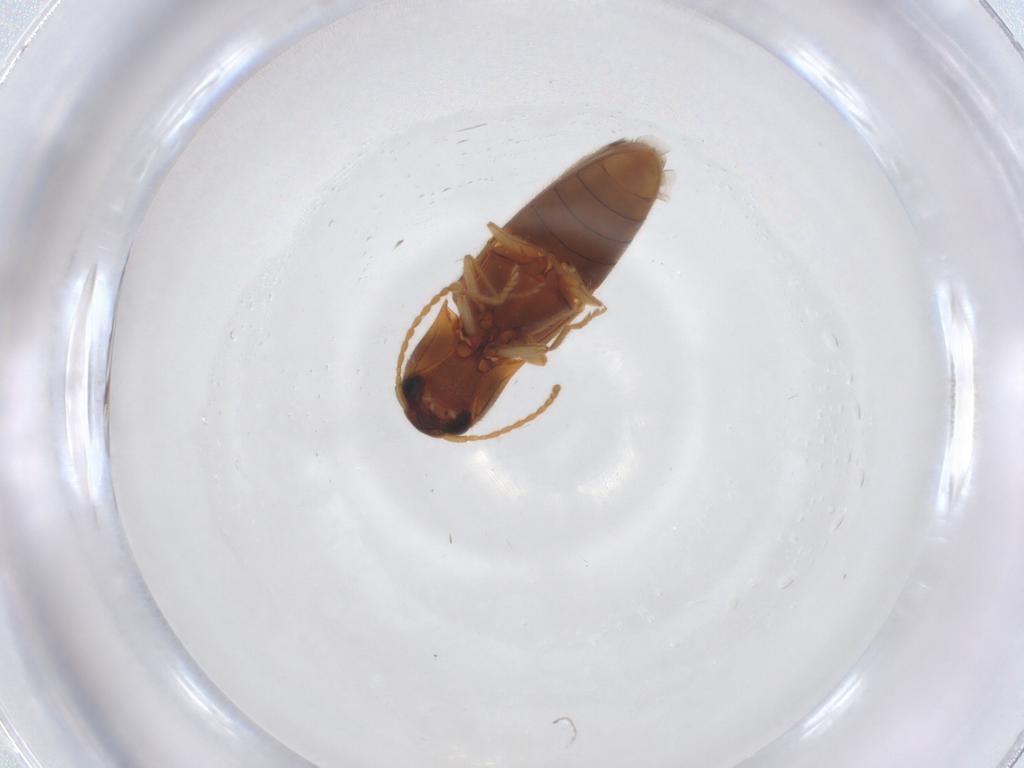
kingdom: Animalia
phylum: Arthropoda
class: Insecta
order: Coleoptera
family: Elateridae
